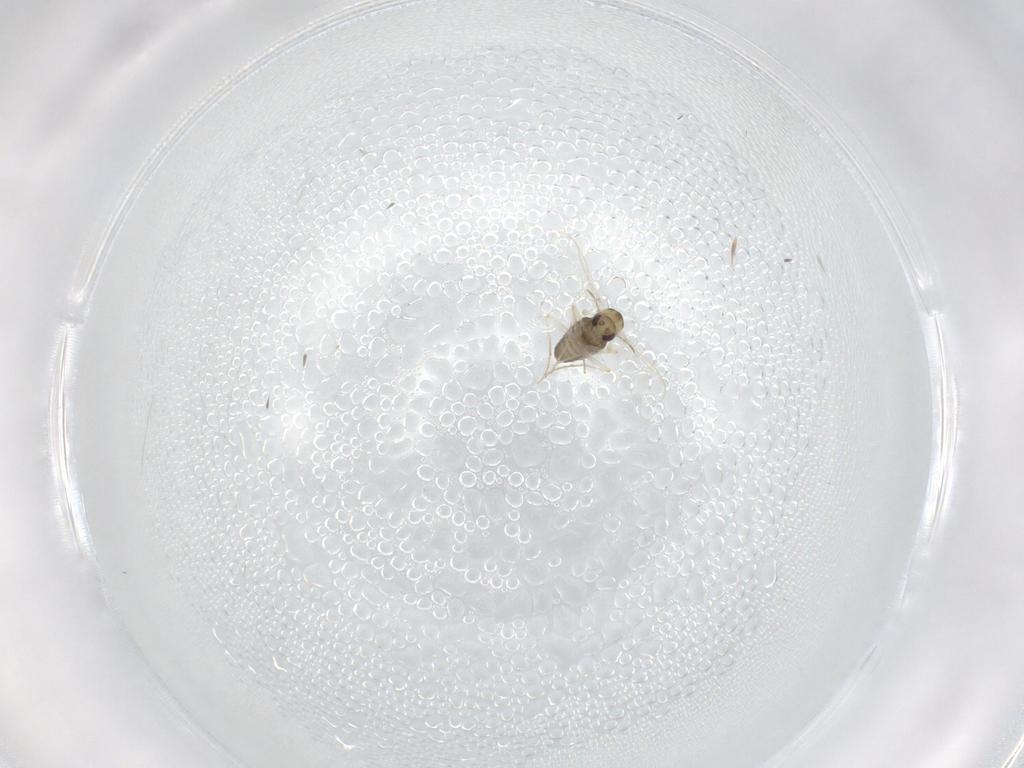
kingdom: Animalia
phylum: Arthropoda
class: Insecta
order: Diptera
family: Chironomidae
